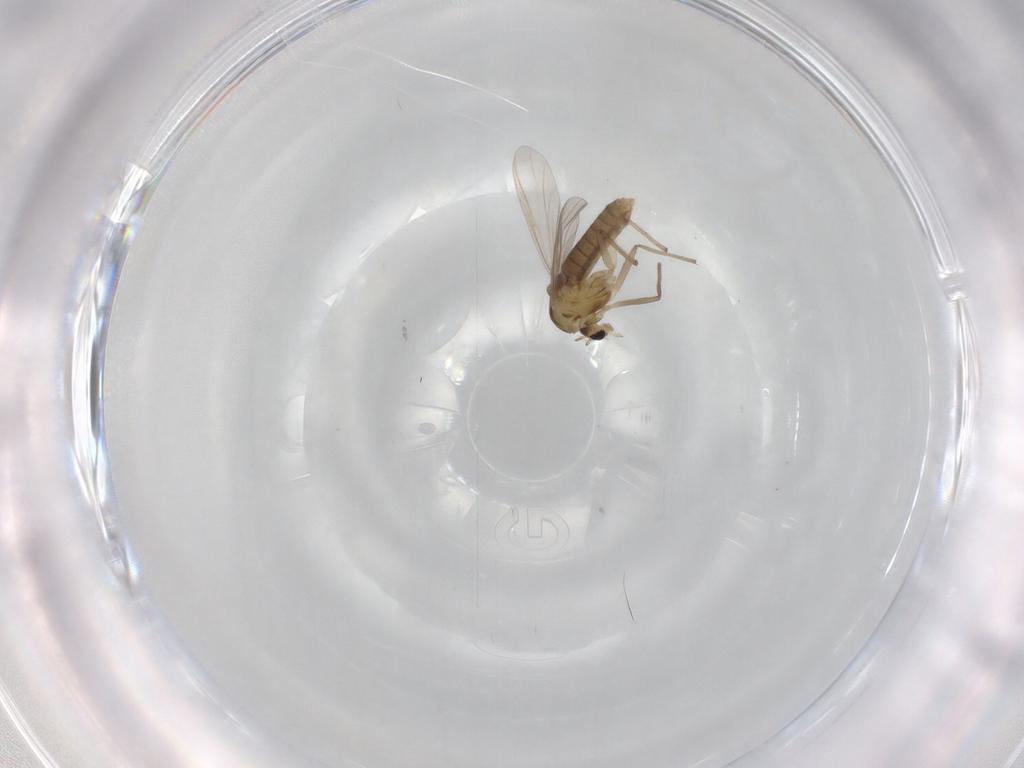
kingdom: Animalia
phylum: Arthropoda
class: Insecta
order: Diptera
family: Chironomidae
